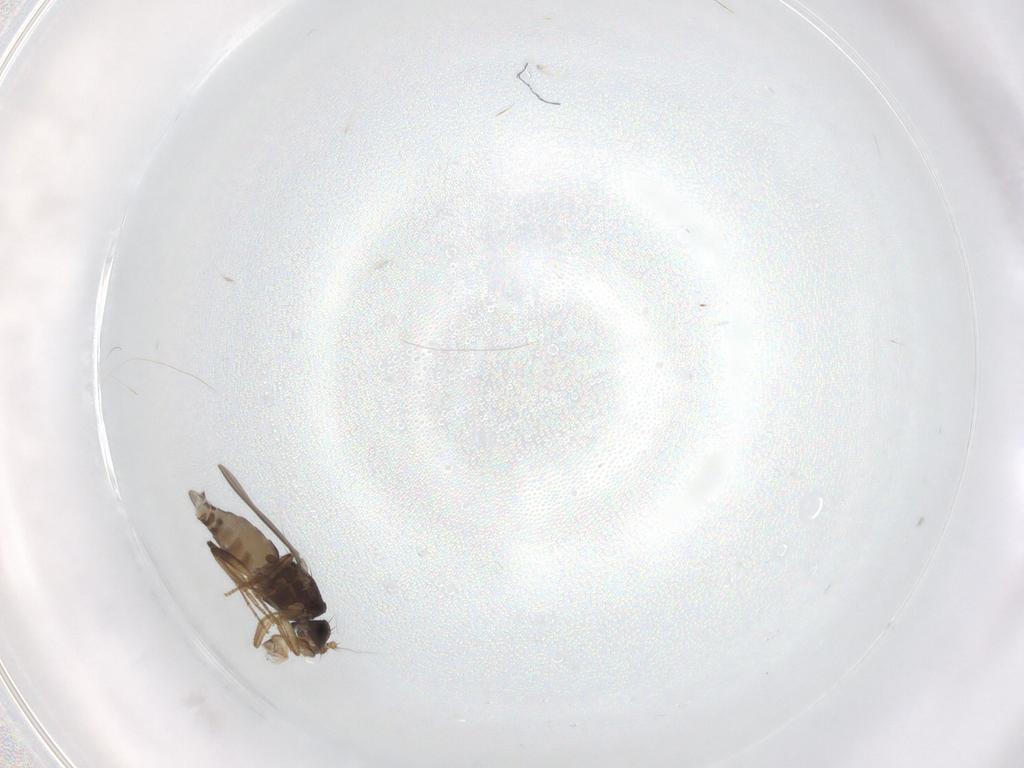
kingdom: Animalia
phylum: Arthropoda
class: Insecta
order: Diptera
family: Sphaeroceridae
